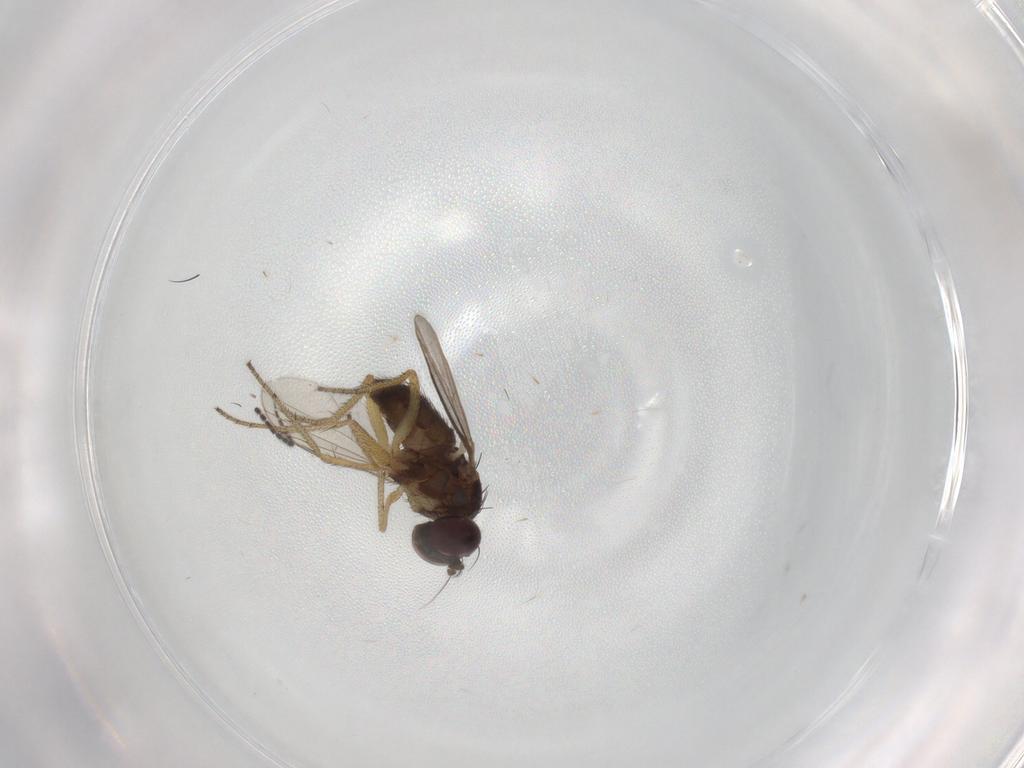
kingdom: Animalia
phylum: Arthropoda
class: Insecta
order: Diptera
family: Dolichopodidae
